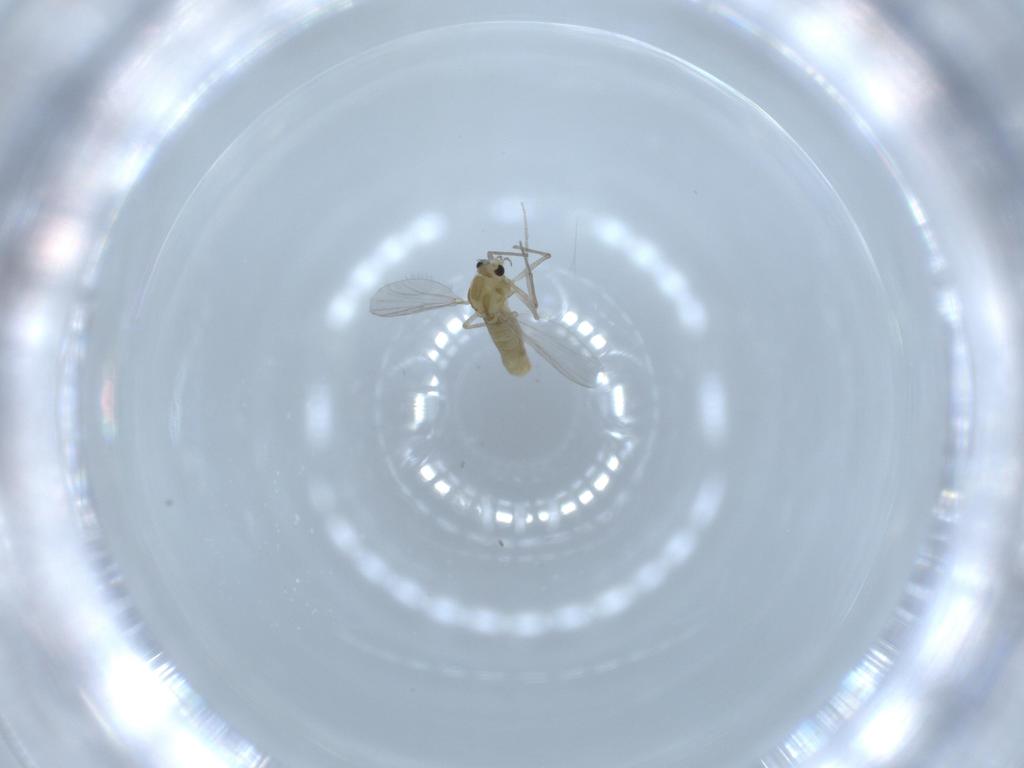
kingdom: Animalia
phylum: Arthropoda
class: Insecta
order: Diptera
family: Chironomidae
